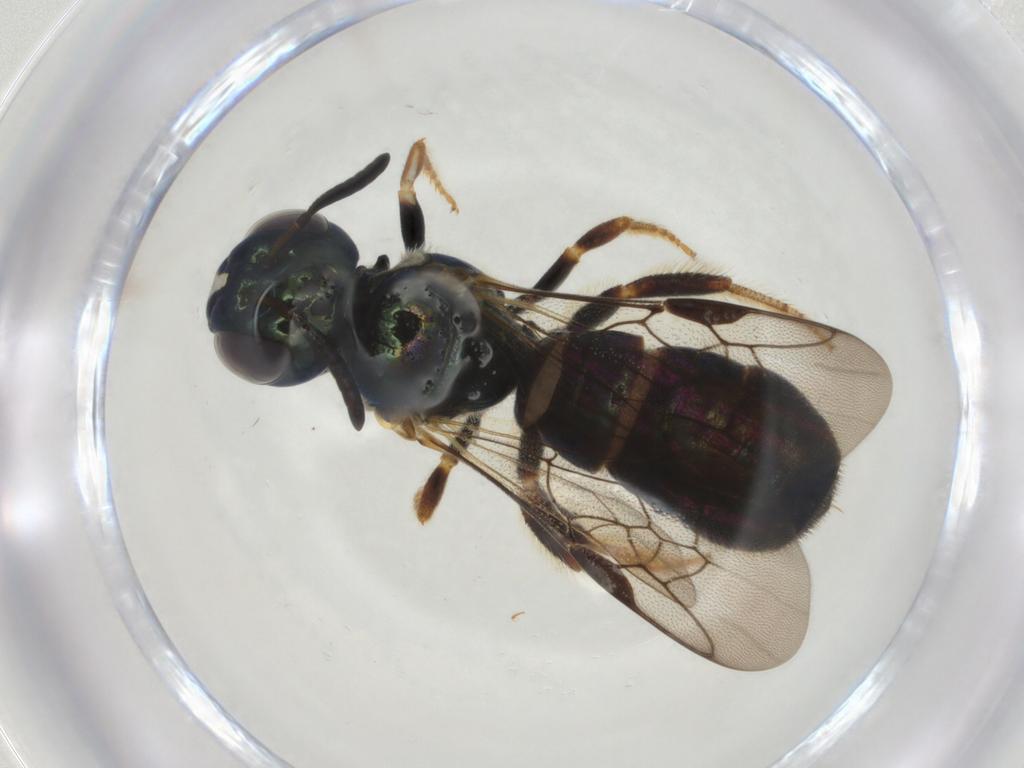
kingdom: Animalia
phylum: Arthropoda
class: Insecta
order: Hymenoptera
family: Apidae
